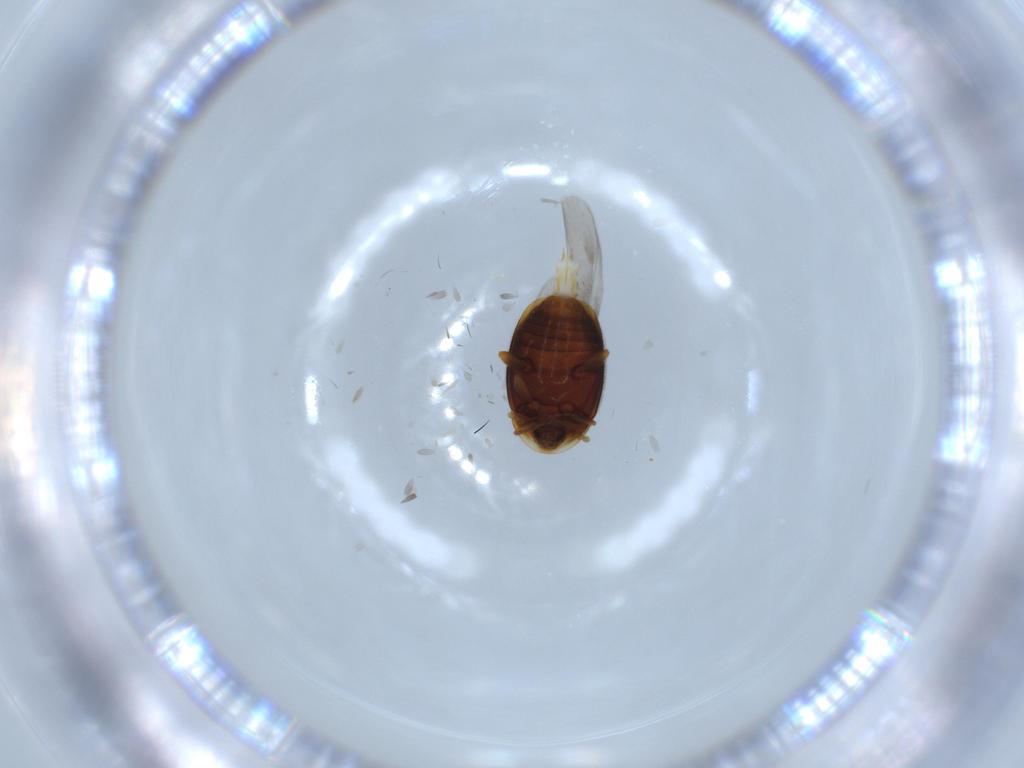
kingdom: Animalia
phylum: Arthropoda
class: Insecta
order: Coleoptera
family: Corylophidae
